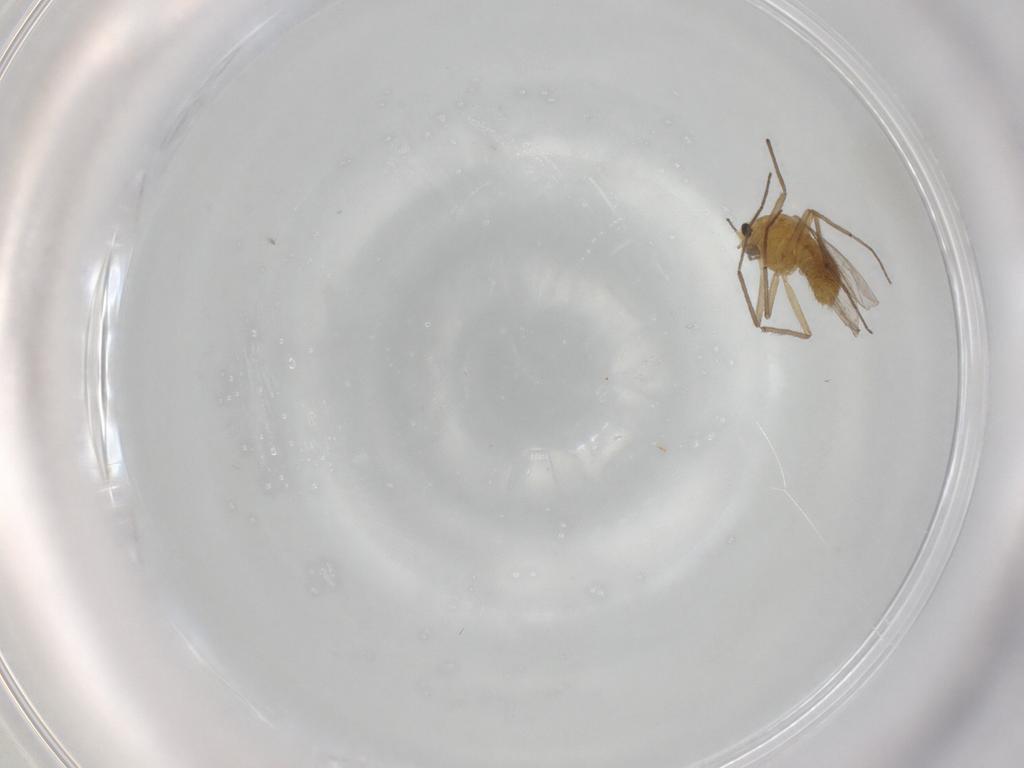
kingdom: Animalia
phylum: Arthropoda
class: Insecta
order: Diptera
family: Chironomidae
